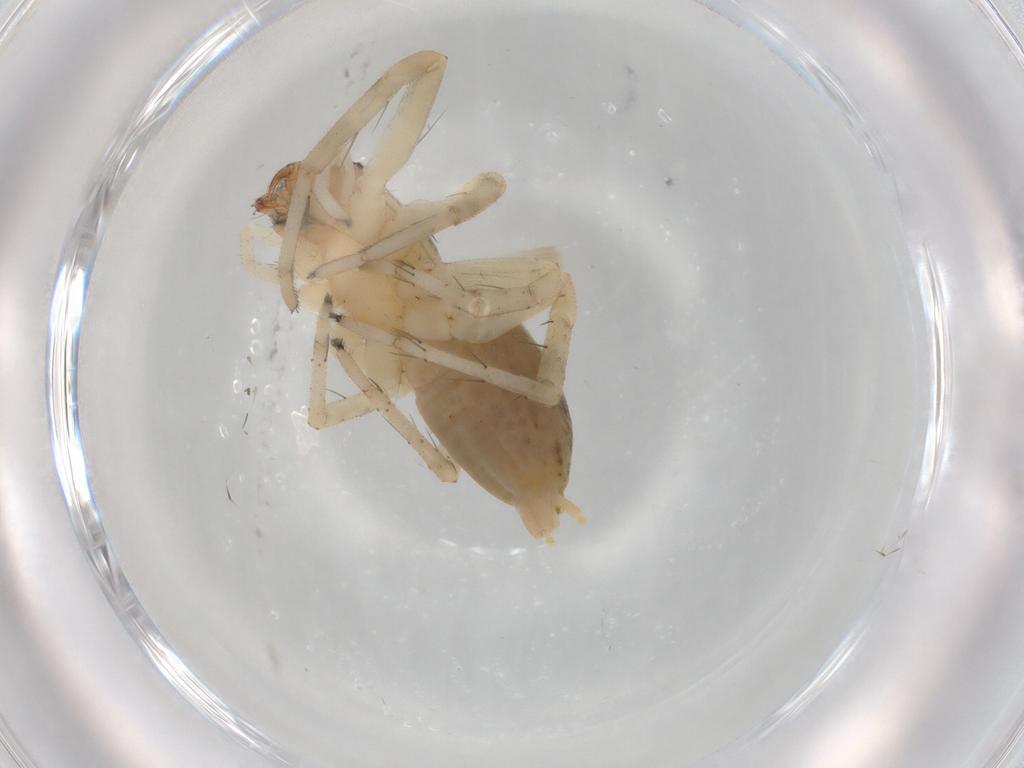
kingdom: Animalia
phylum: Arthropoda
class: Arachnida
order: Araneae
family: Anyphaenidae
